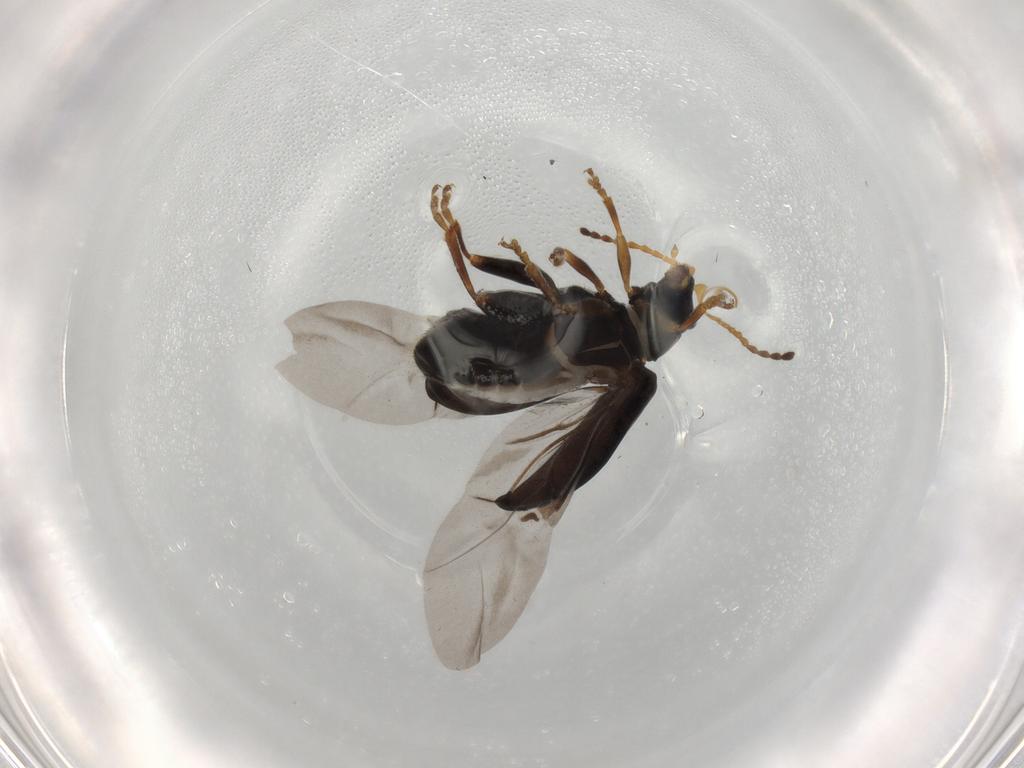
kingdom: Animalia
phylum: Arthropoda
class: Insecta
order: Coleoptera
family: Chrysomelidae
